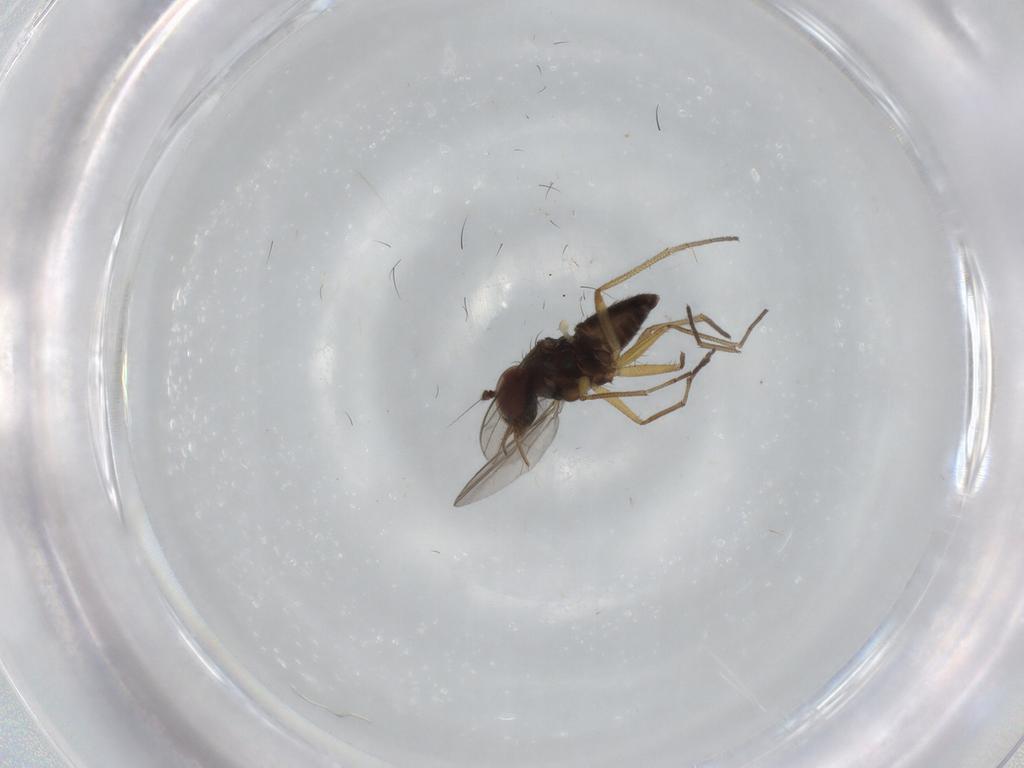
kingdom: Animalia
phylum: Arthropoda
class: Insecta
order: Diptera
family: Dolichopodidae
